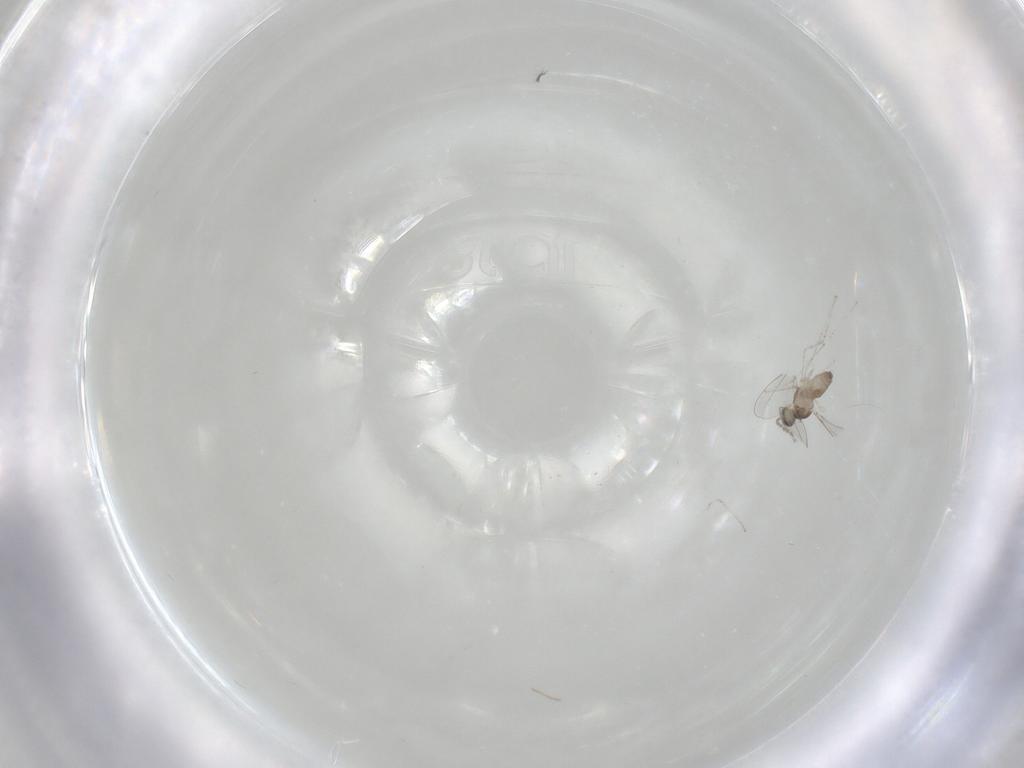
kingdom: Animalia
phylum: Arthropoda
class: Insecta
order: Diptera
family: Cecidomyiidae
